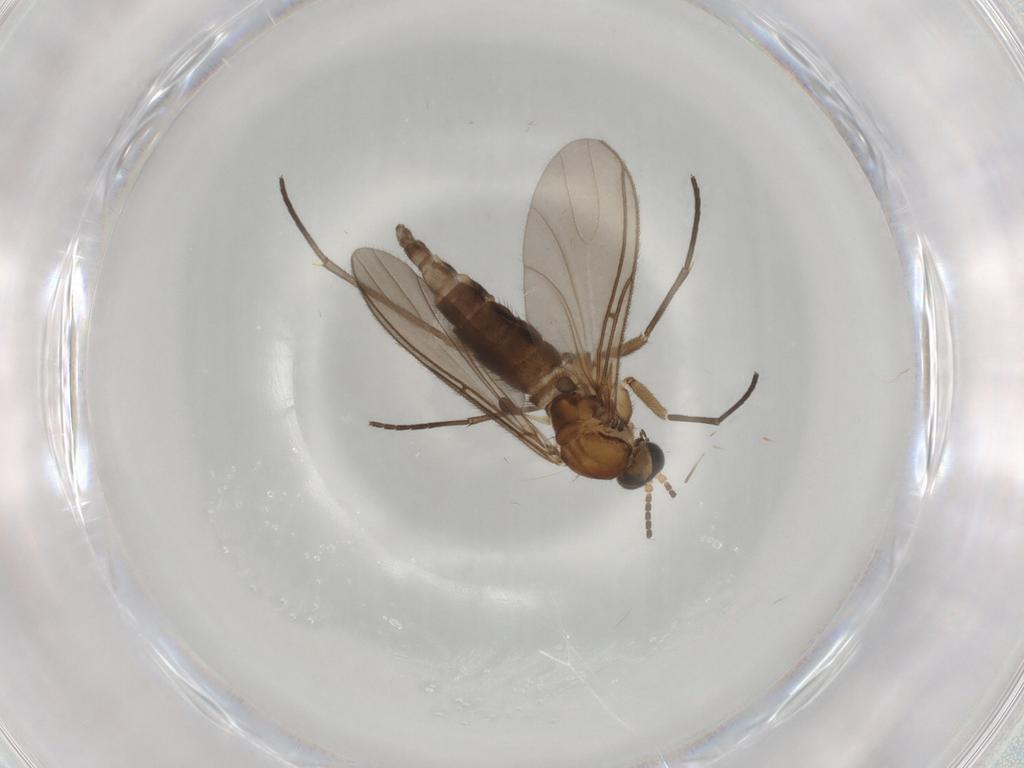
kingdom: Animalia
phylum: Arthropoda
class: Insecta
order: Diptera
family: Sciaridae
